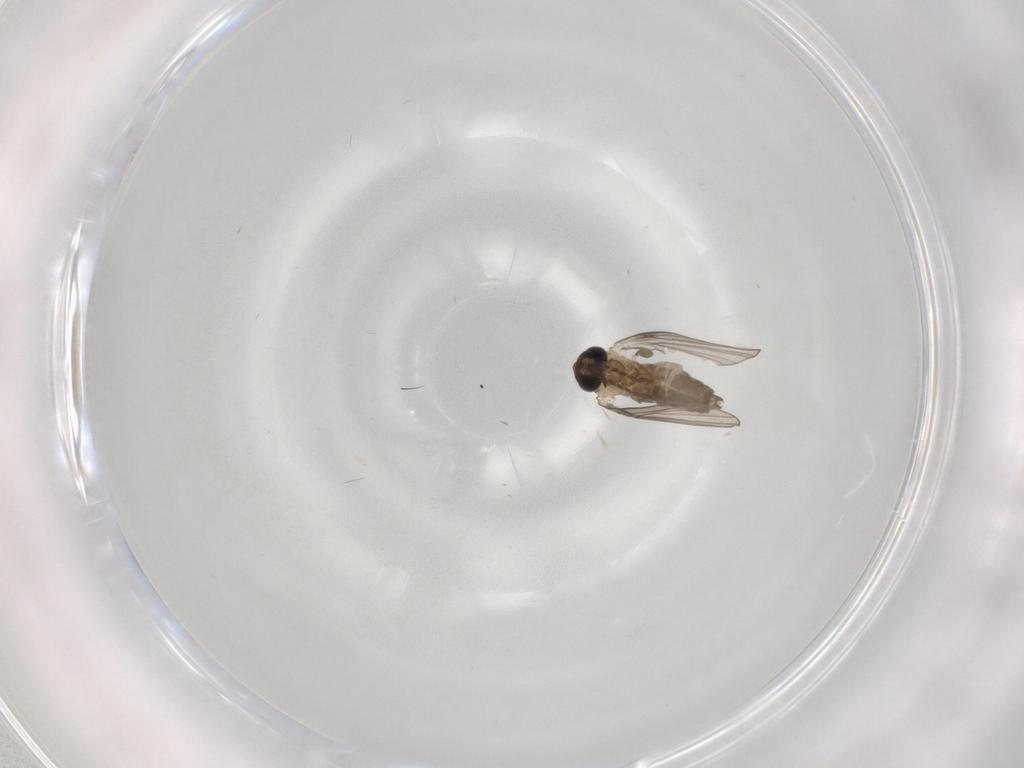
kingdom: Animalia
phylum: Arthropoda
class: Insecta
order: Diptera
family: Psychodidae
